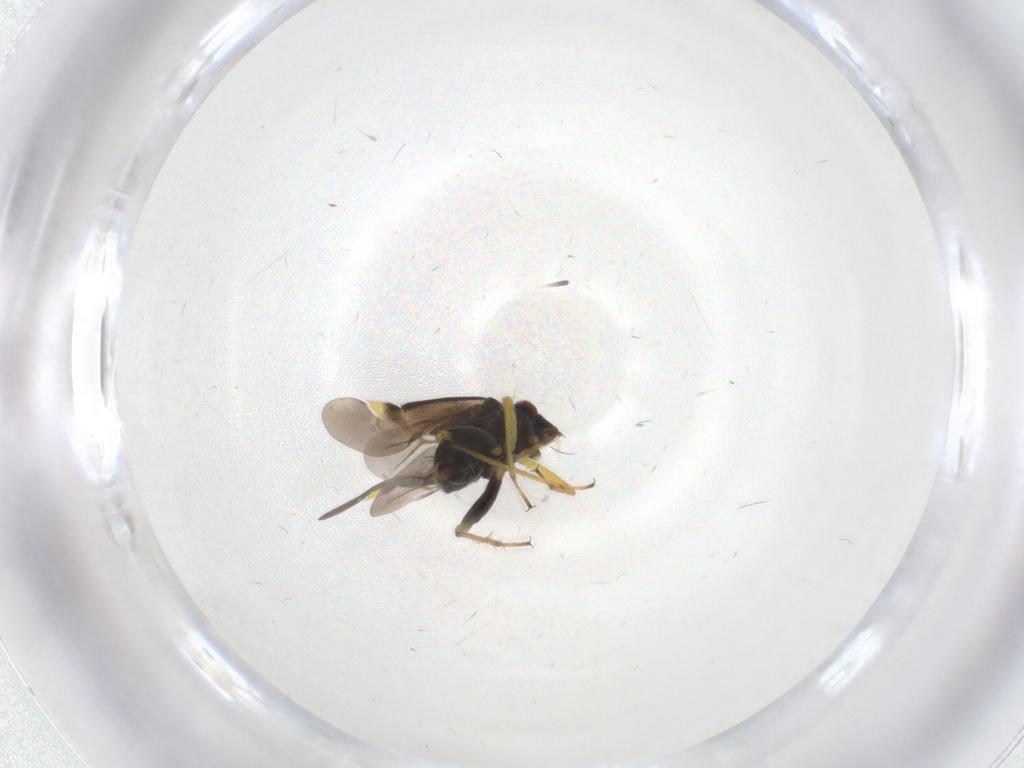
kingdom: Animalia
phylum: Arthropoda
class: Insecta
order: Hemiptera
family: Miridae
